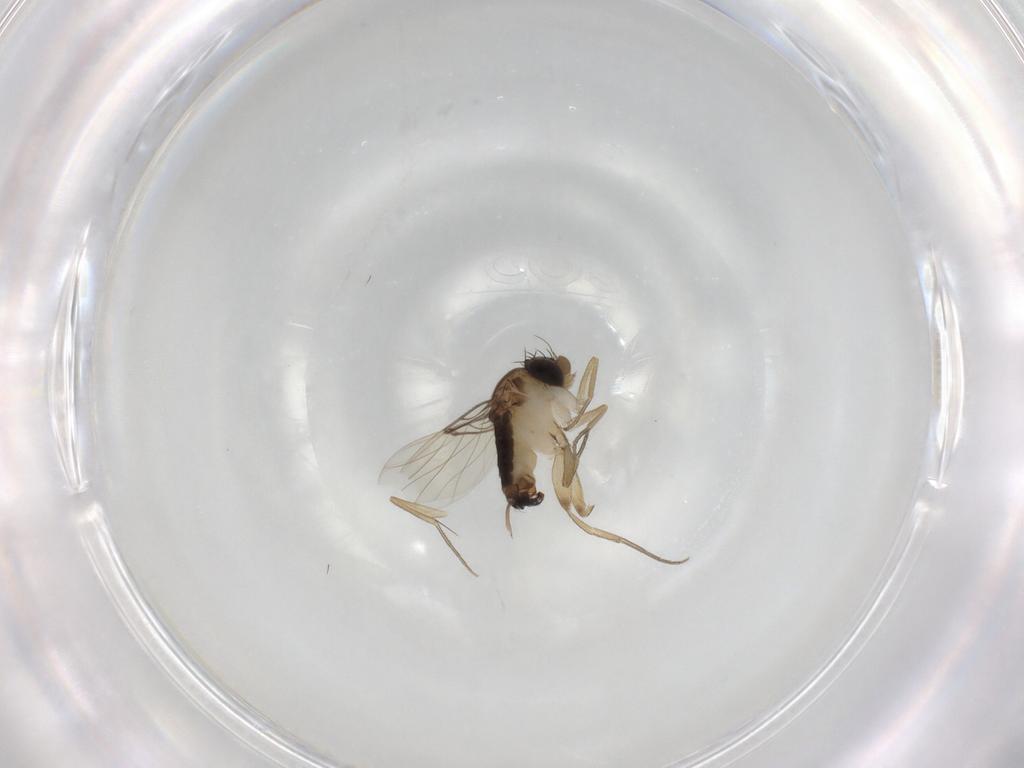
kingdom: Animalia
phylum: Arthropoda
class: Insecta
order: Diptera
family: Phoridae
